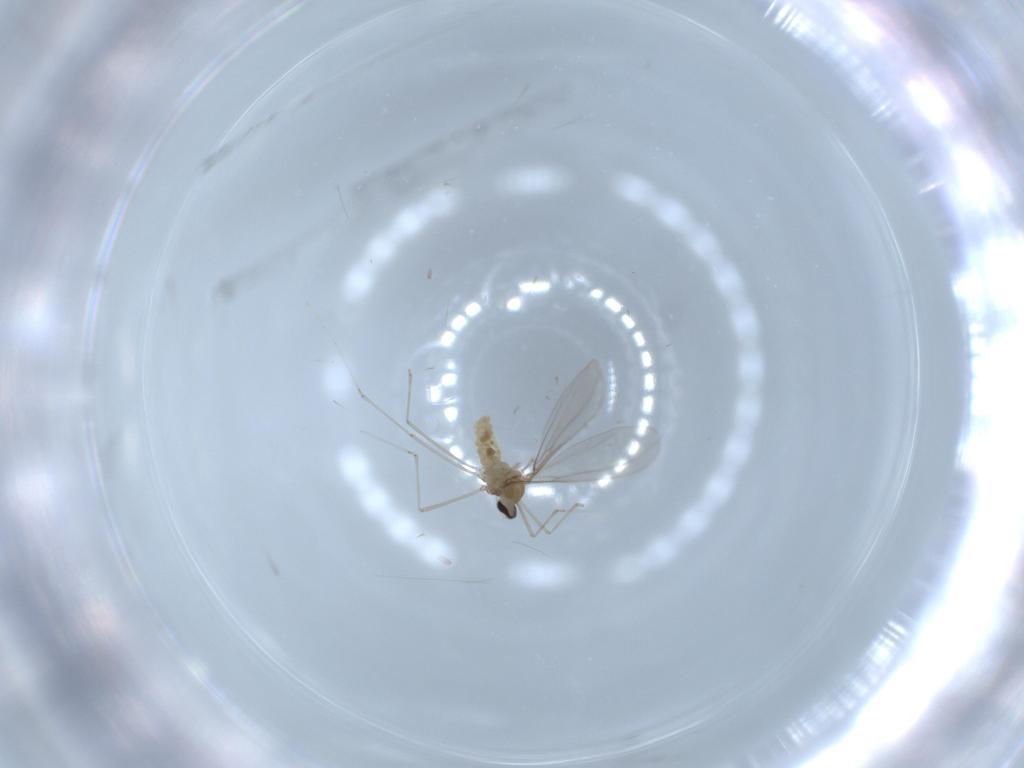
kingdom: Animalia
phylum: Arthropoda
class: Insecta
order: Diptera
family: Cecidomyiidae
